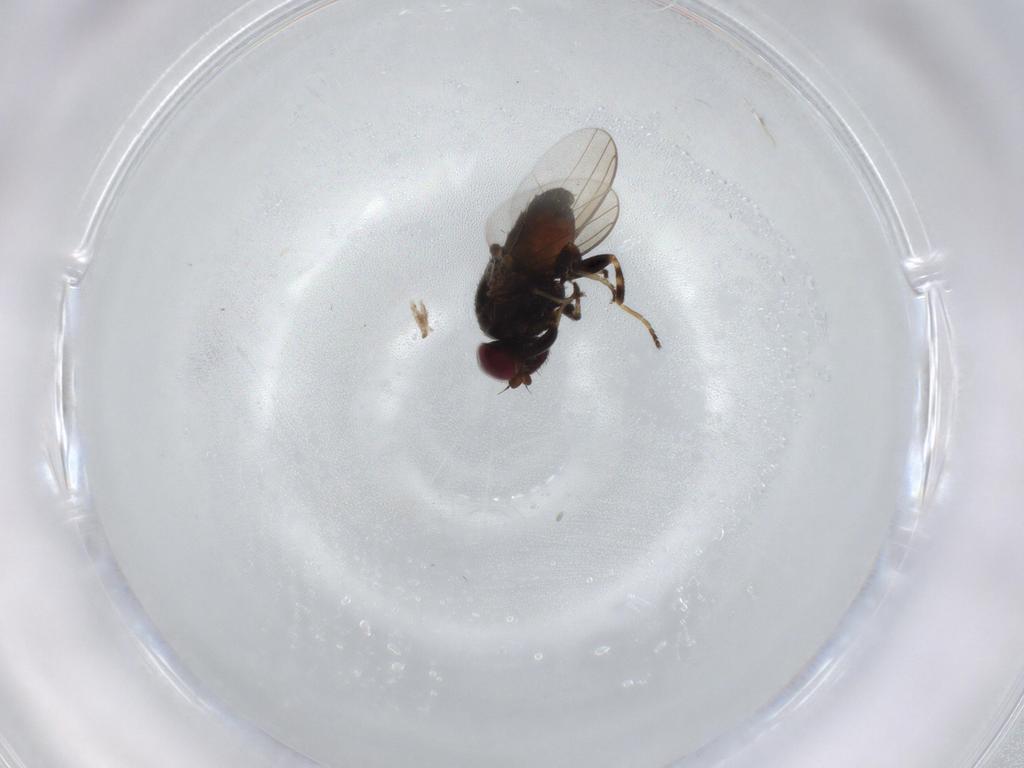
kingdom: Animalia
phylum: Arthropoda
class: Insecta
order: Diptera
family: Chloropidae
